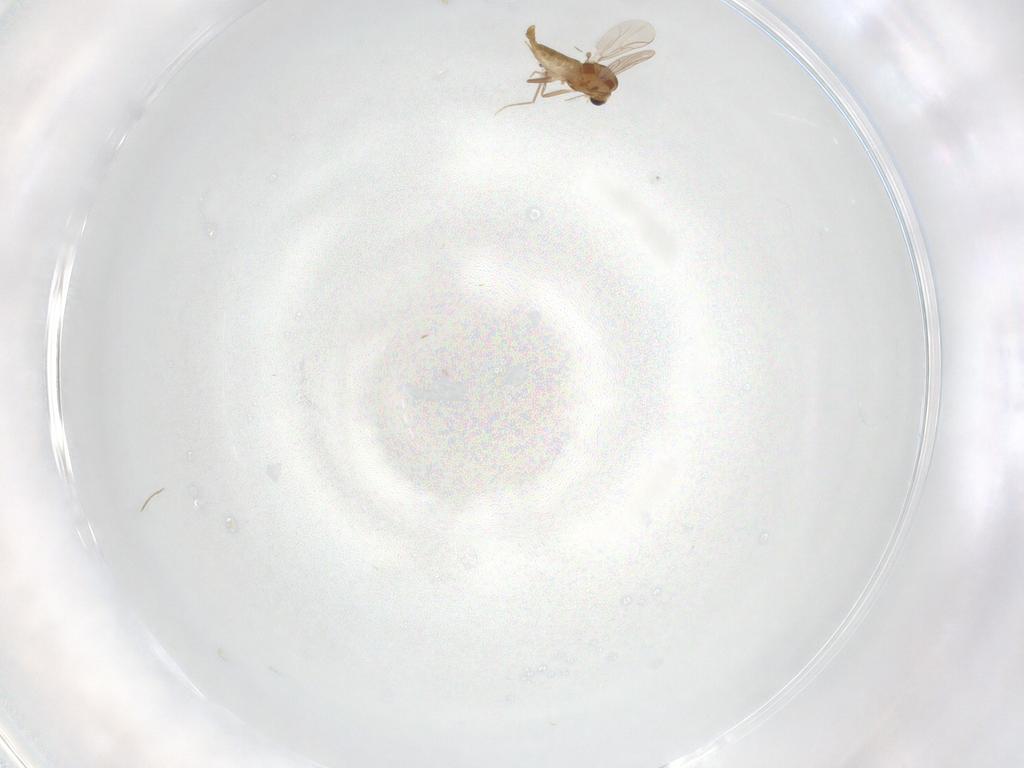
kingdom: Animalia
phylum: Arthropoda
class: Insecta
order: Diptera
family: Chironomidae
